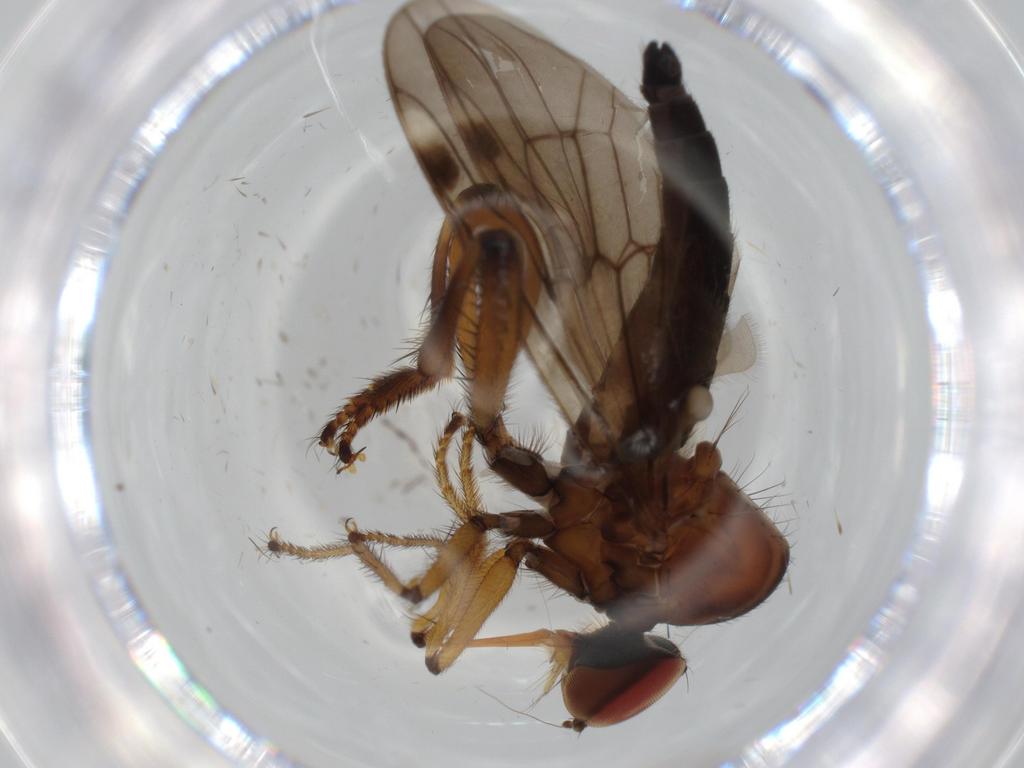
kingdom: Animalia
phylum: Arthropoda
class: Insecta
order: Diptera
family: Hybotidae
